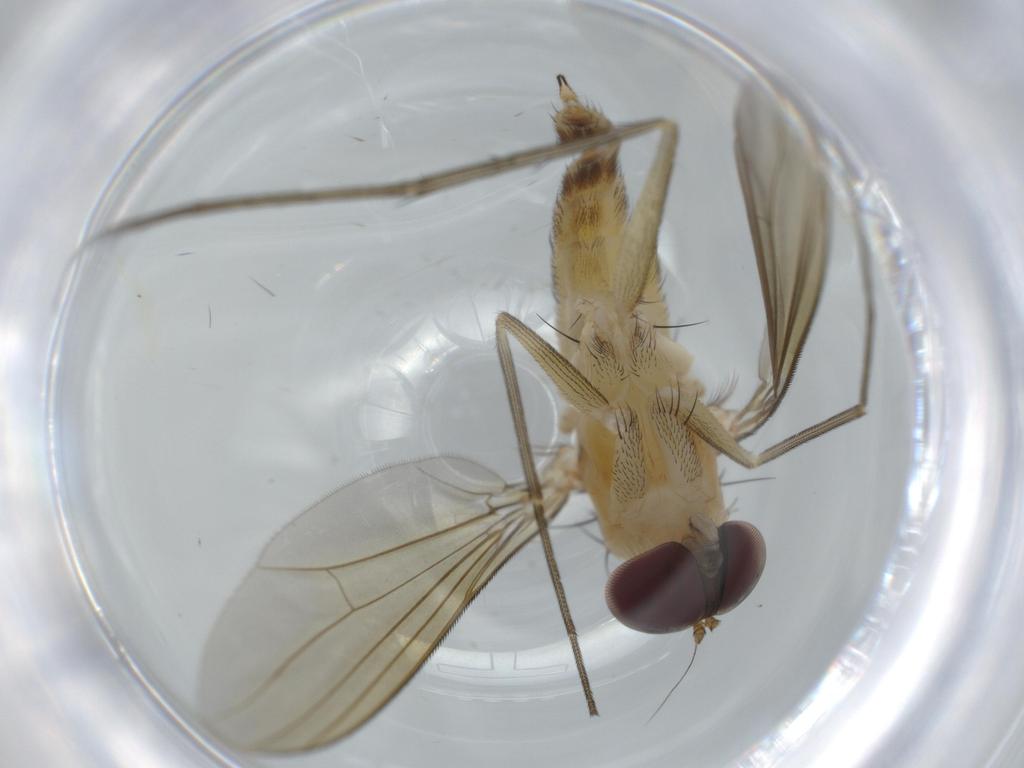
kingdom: Animalia
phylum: Arthropoda
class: Insecta
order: Diptera
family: Dolichopodidae
